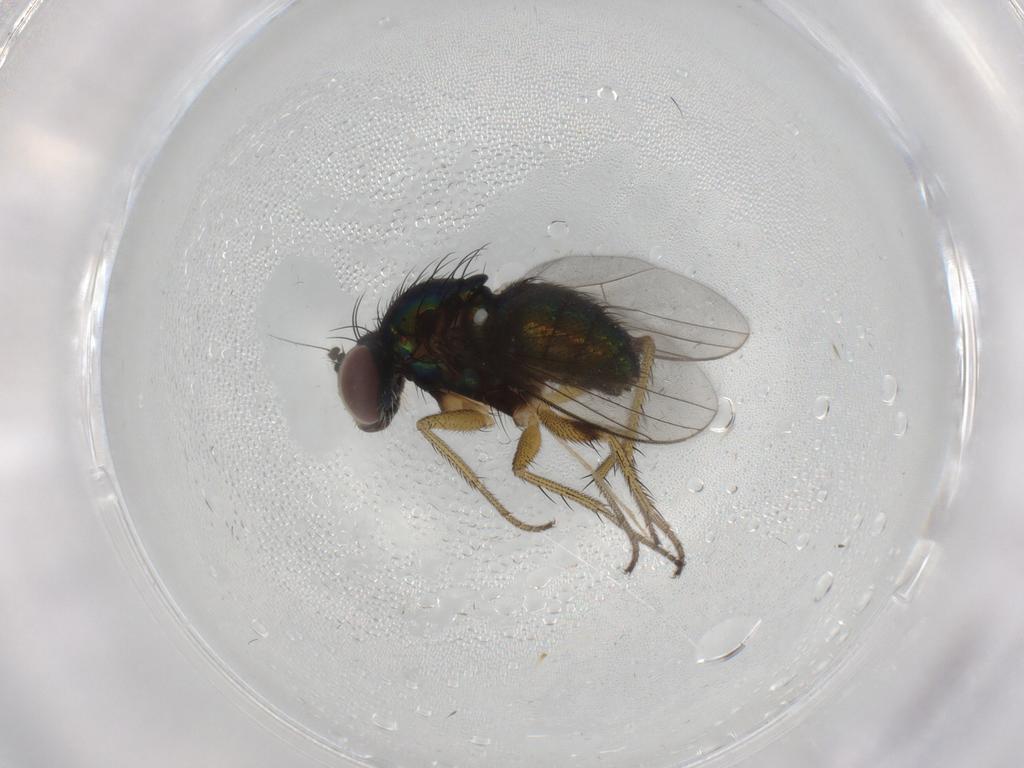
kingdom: Animalia
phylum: Arthropoda
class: Insecta
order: Diptera
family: Dolichopodidae
